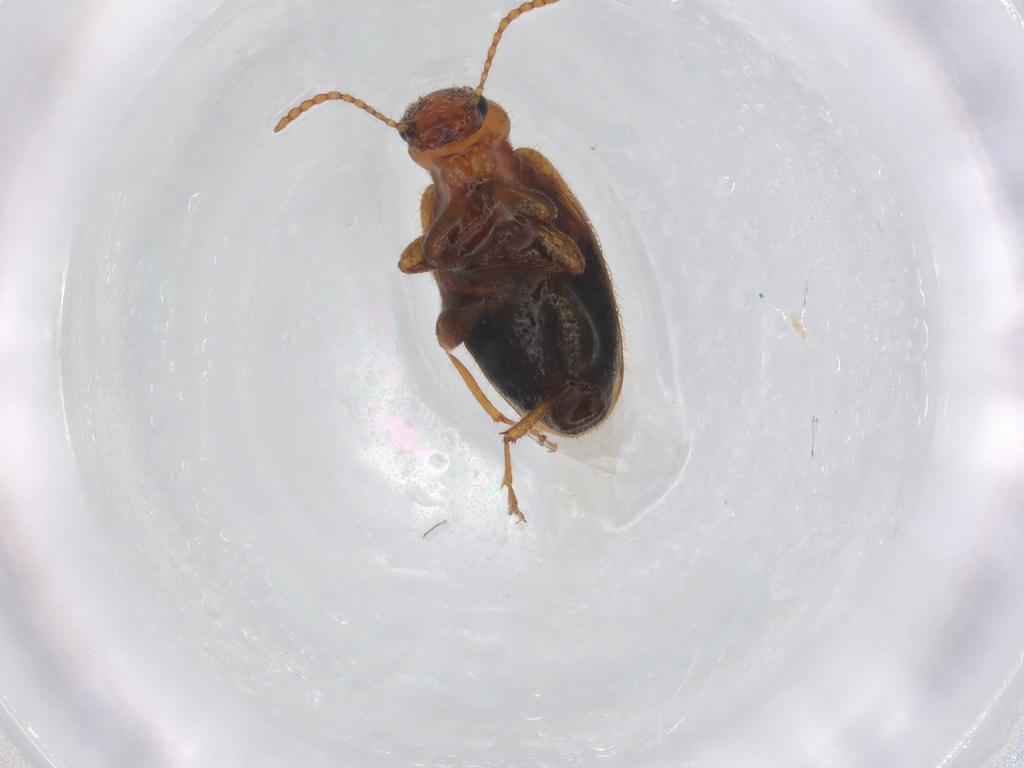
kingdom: Animalia
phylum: Arthropoda
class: Insecta
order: Coleoptera
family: Anthicidae
